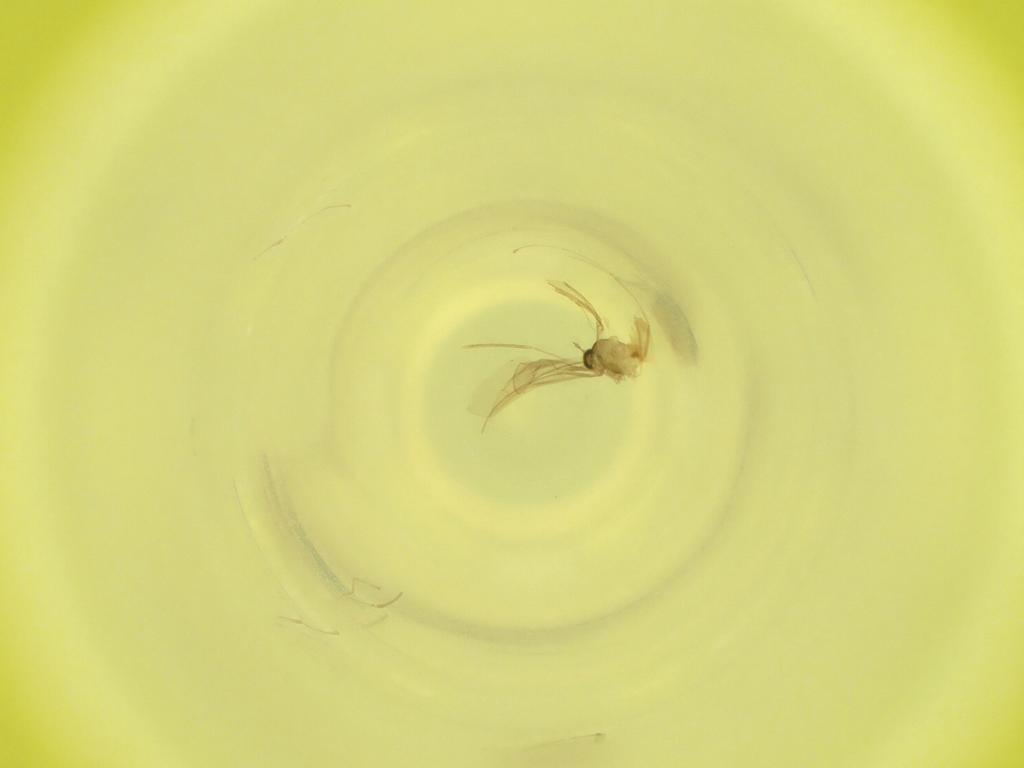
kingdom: Animalia
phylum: Arthropoda
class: Insecta
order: Diptera
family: Cecidomyiidae
